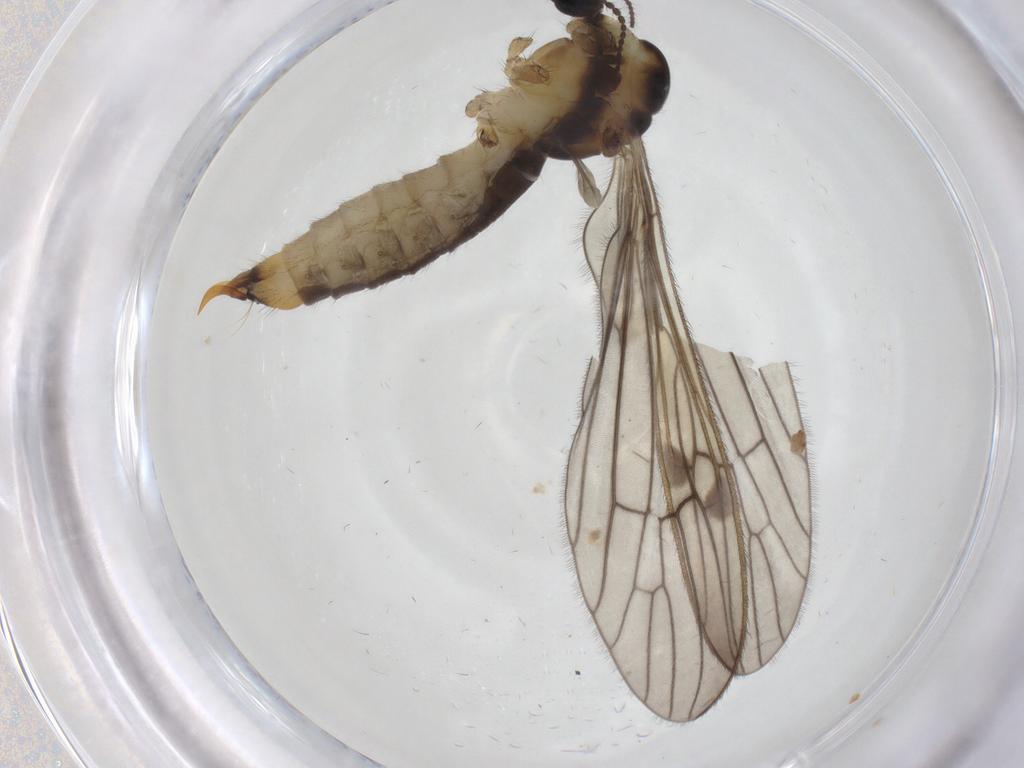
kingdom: Animalia
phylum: Arthropoda
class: Insecta
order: Diptera
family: Limoniidae
